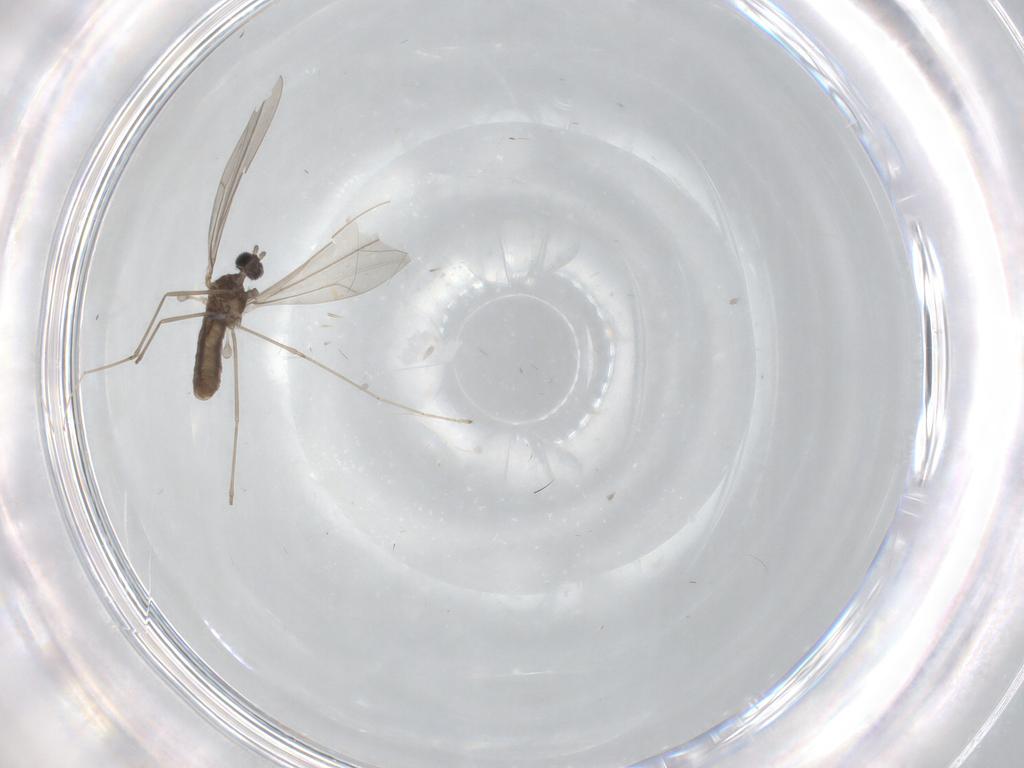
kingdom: Animalia
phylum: Arthropoda
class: Insecta
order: Diptera
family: Cecidomyiidae
